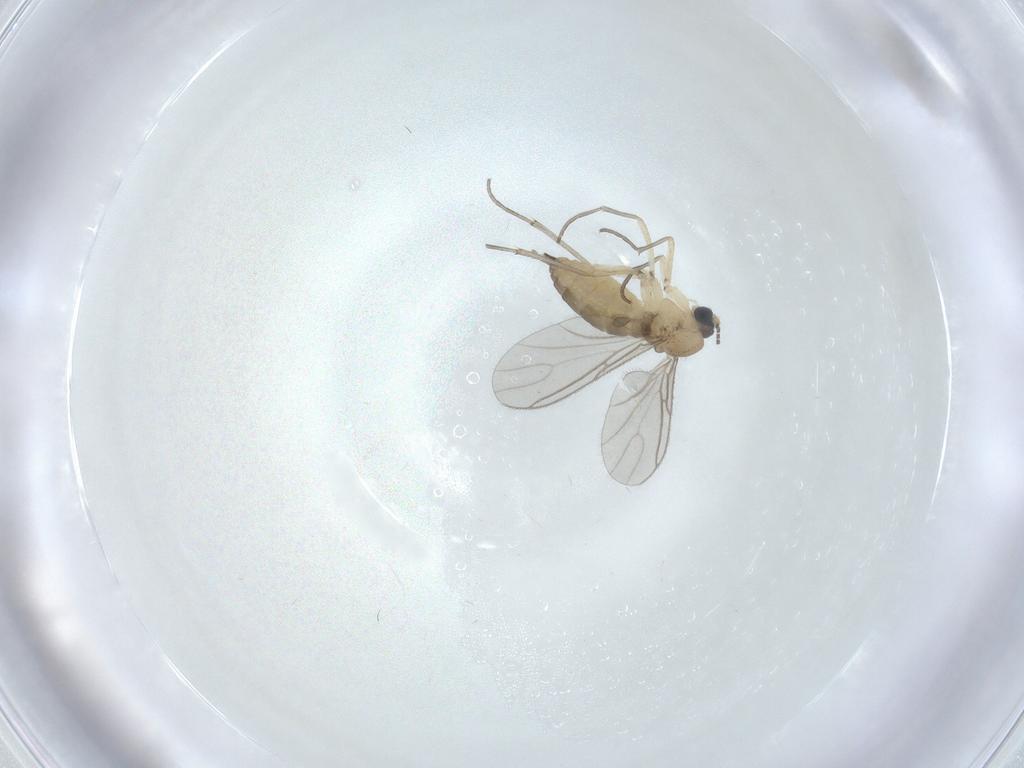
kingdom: Animalia
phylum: Arthropoda
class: Insecta
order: Diptera
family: Sciaridae
